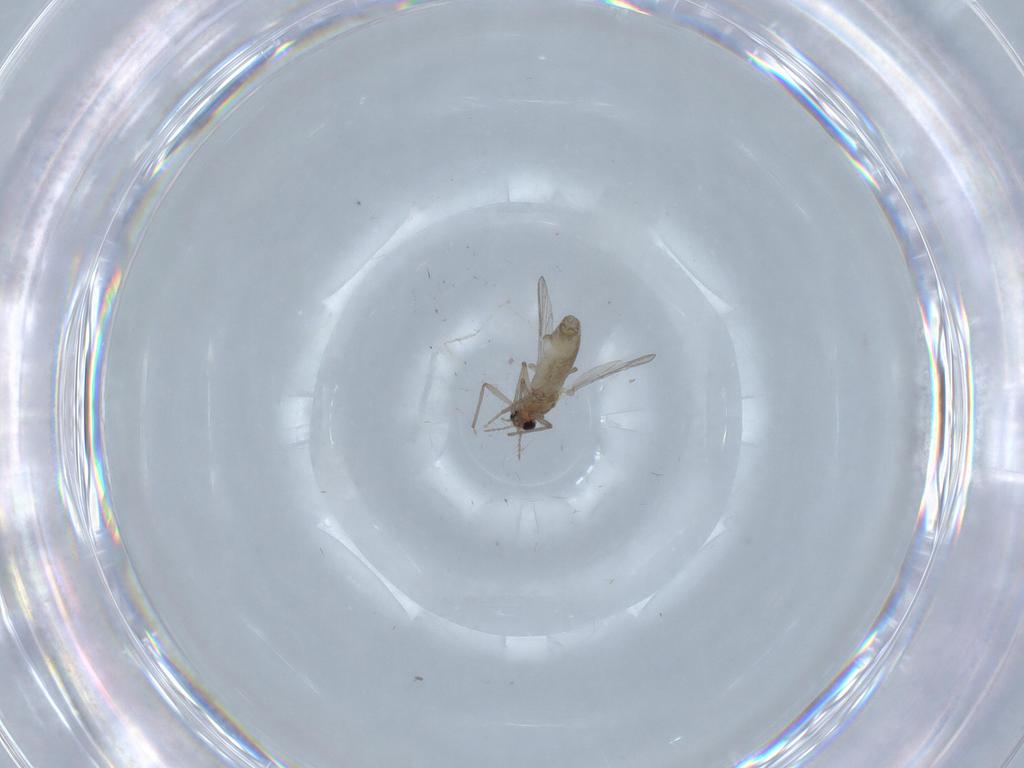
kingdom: Animalia
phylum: Arthropoda
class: Insecta
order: Diptera
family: Chironomidae
